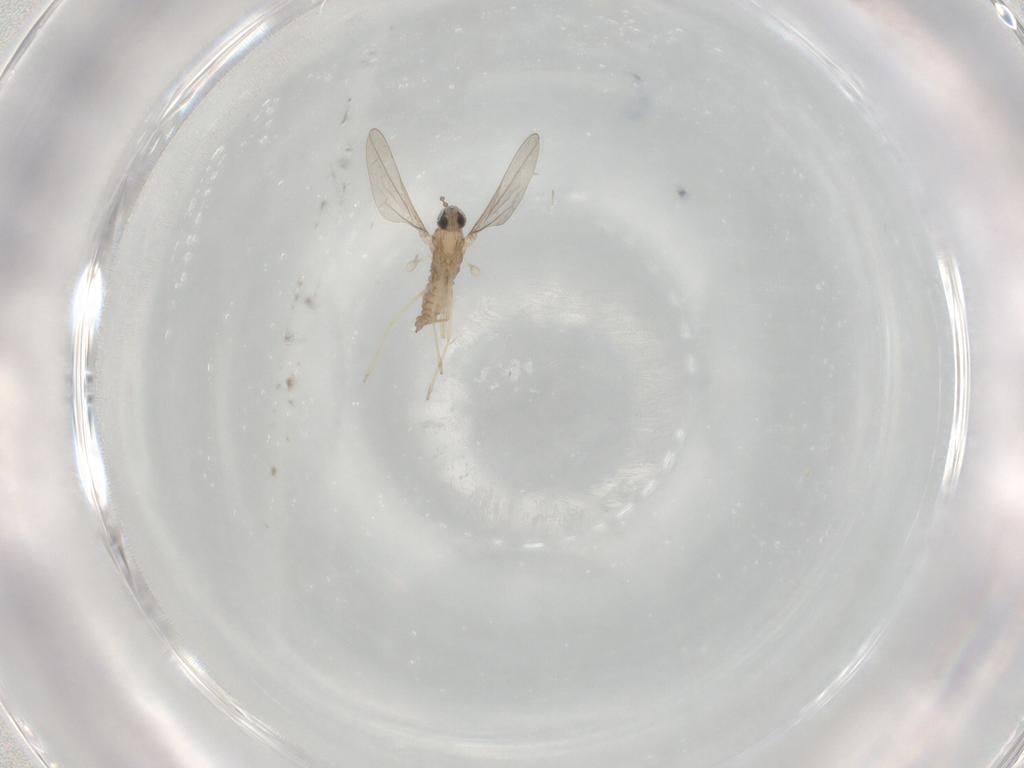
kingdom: Animalia
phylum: Arthropoda
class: Insecta
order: Diptera
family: Cecidomyiidae
